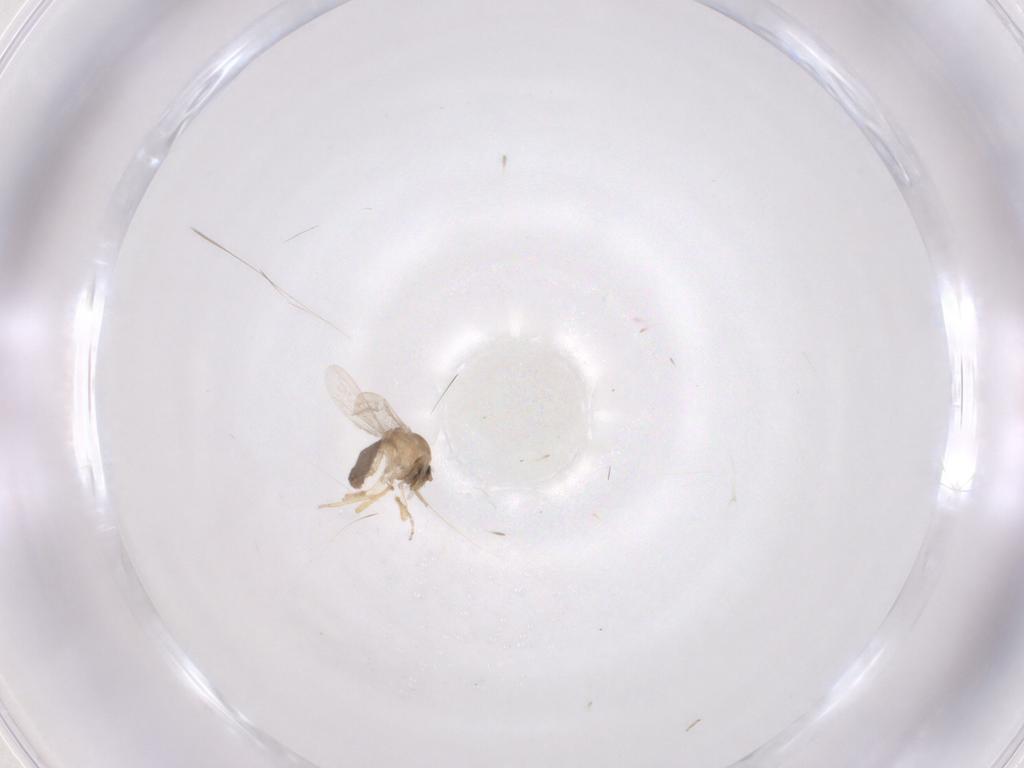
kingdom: Animalia
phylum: Arthropoda
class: Insecta
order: Diptera
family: Ceratopogonidae
